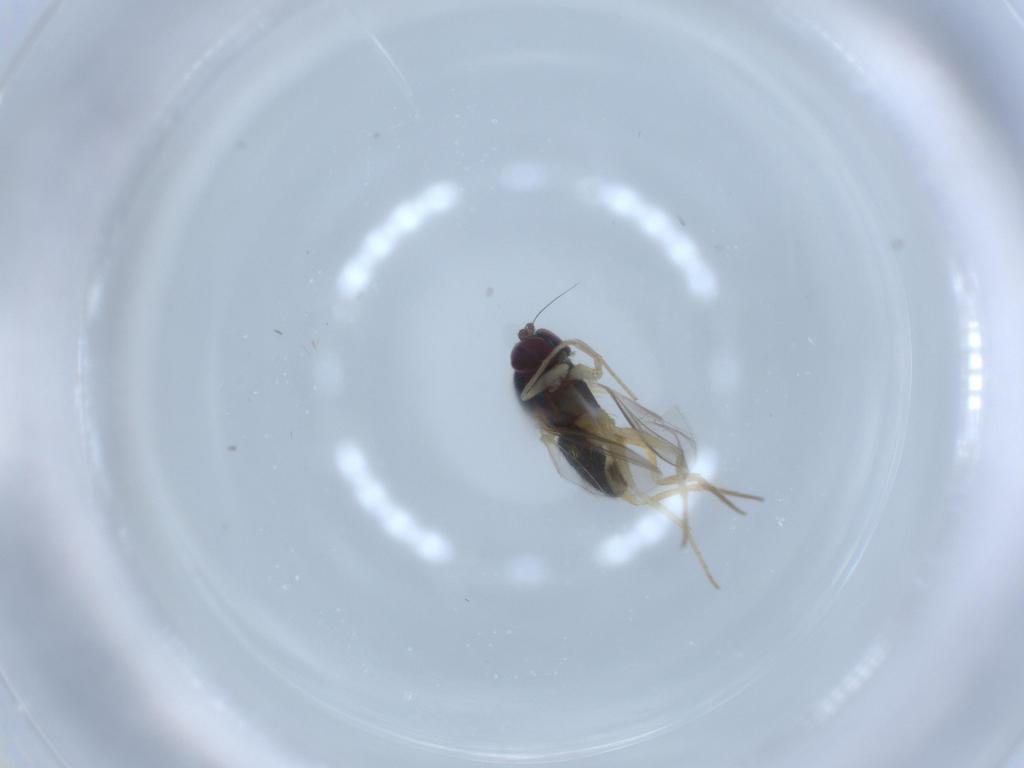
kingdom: Animalia
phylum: Arthropoda
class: Insecta
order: Diptera
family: Dolichopodidae
